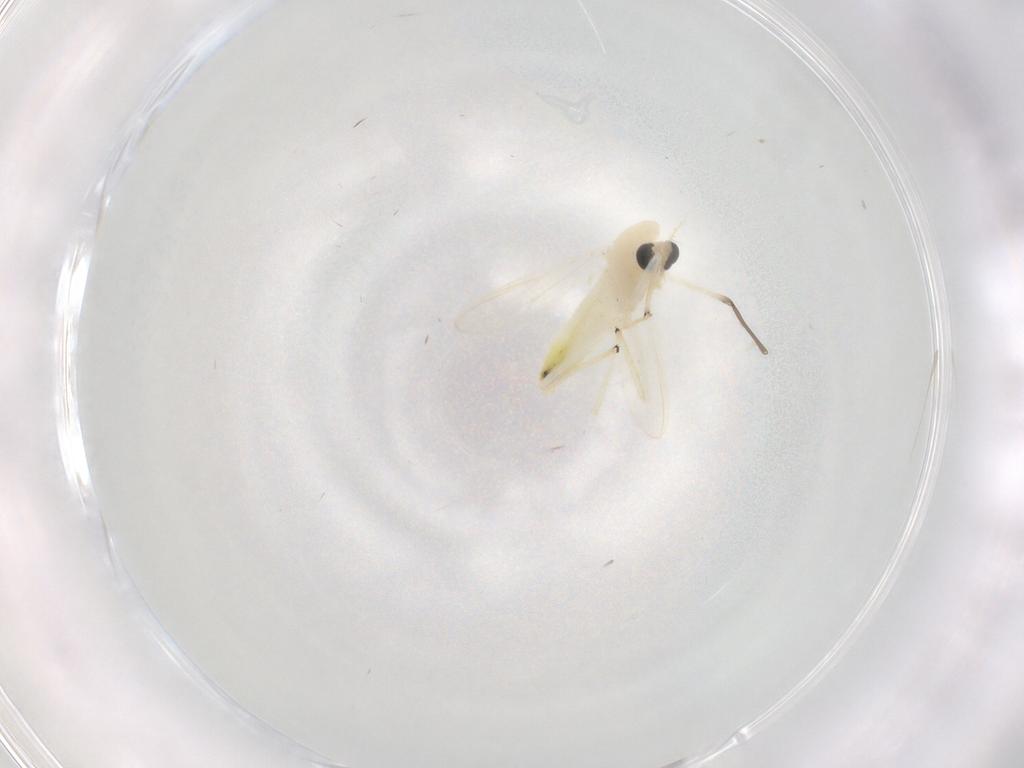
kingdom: Animalia
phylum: Arthropoda
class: Insecta
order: Diptera
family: Chironomidae
